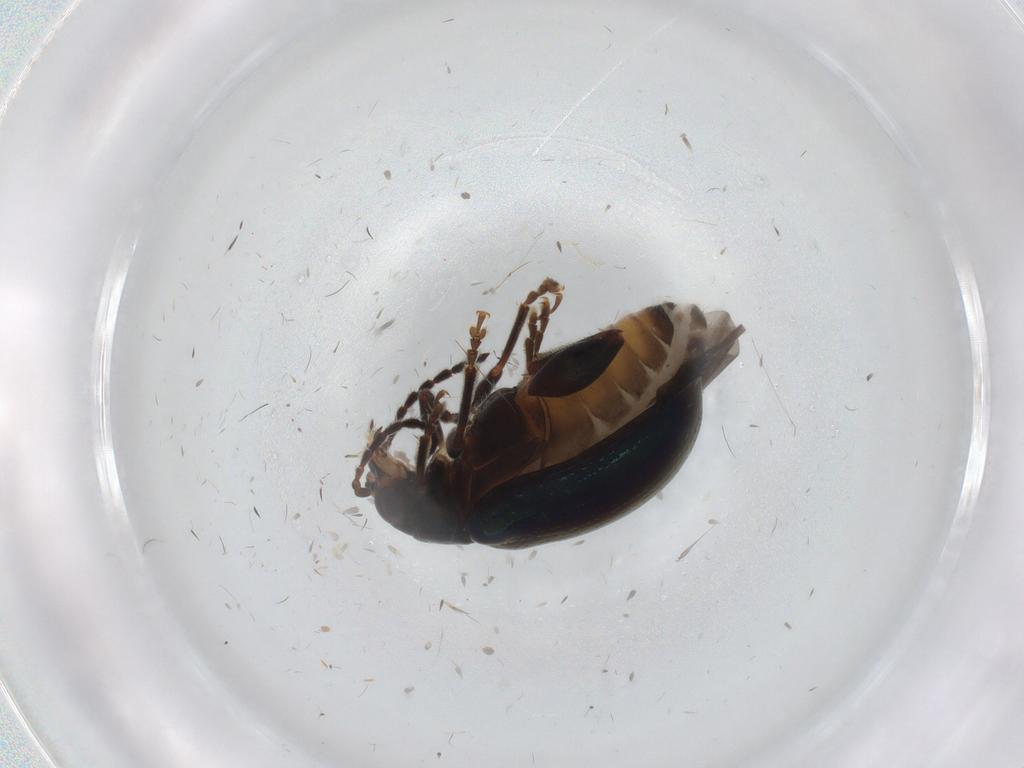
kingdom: Animalia
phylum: Arthropoda
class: Insecta
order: Coleoptera
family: Chrysomelidae
